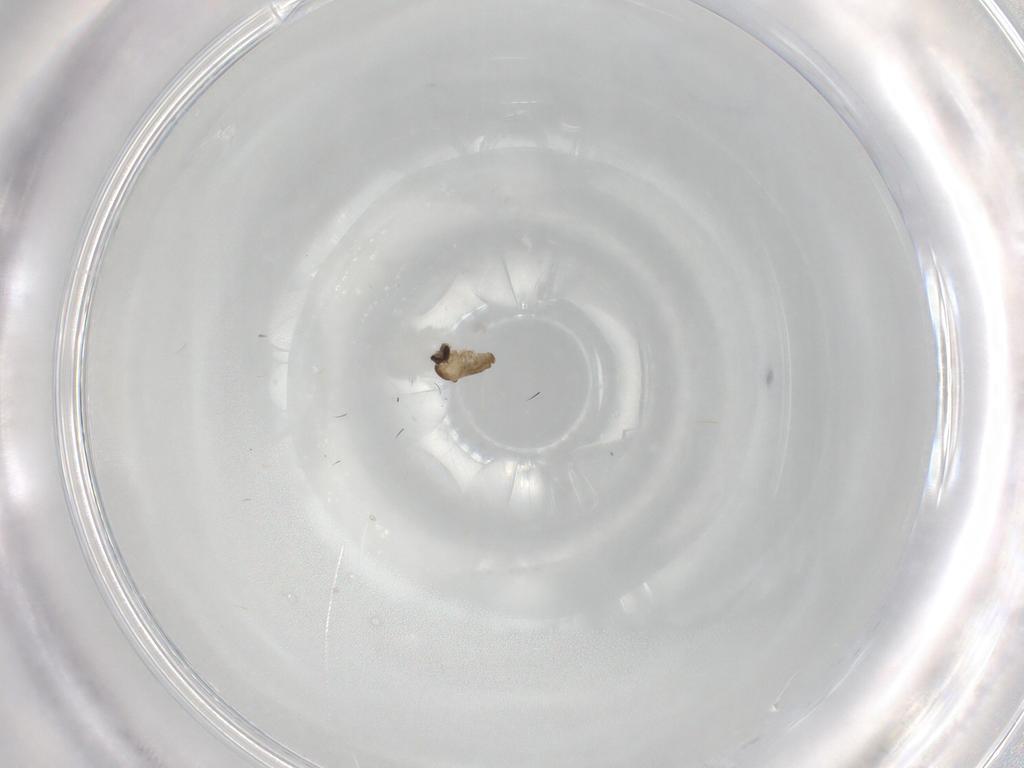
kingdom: Animalia
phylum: Arthropoda
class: Insecta
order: Diptera
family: Cecidomyiidae
